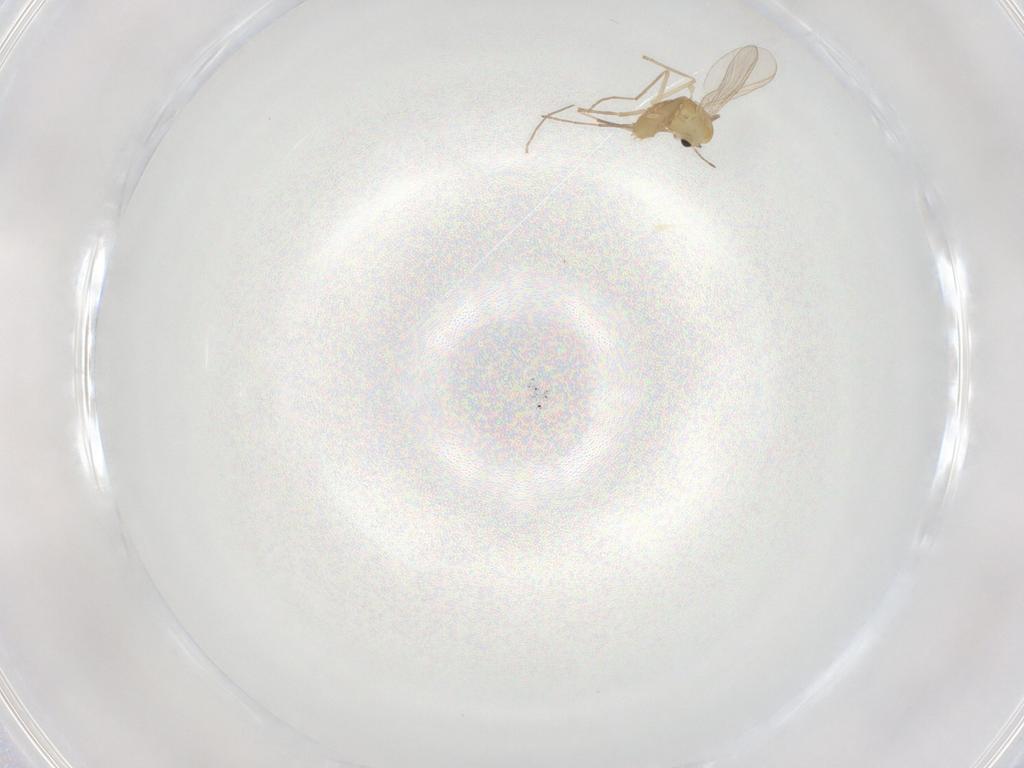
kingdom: Animalia
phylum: Arthropoda
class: Insecta
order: Diptera
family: Chironomidae
